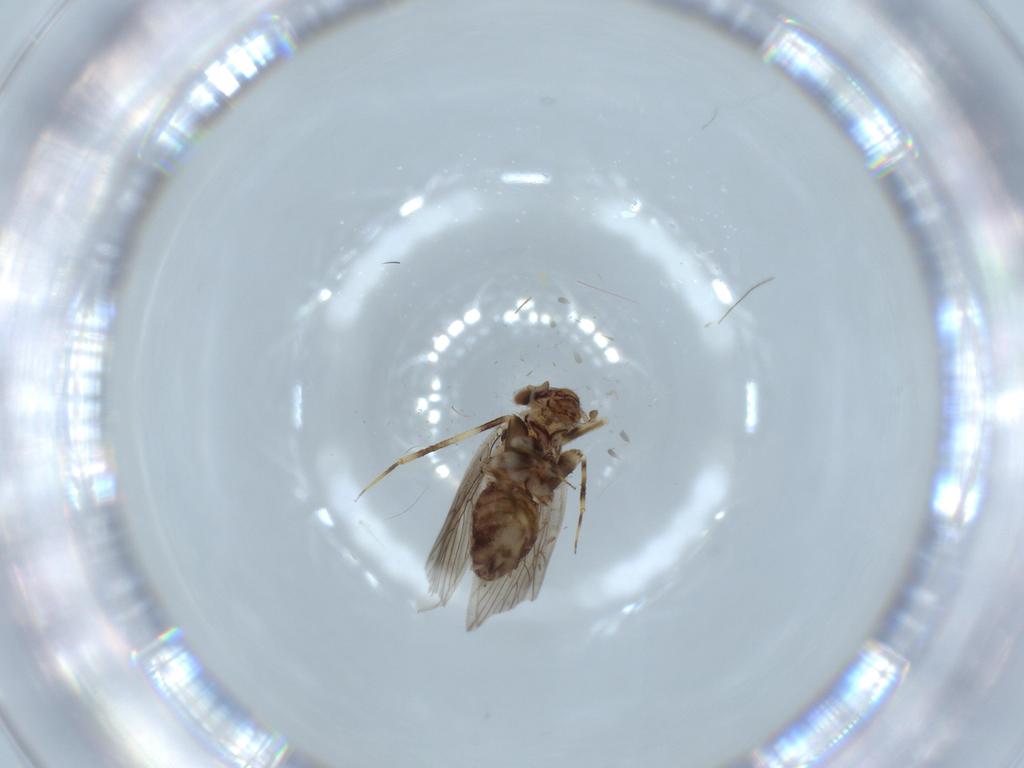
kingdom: Animalia
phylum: Arthropoda
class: Insecta
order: Psocodea
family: Lepidopsocidae
